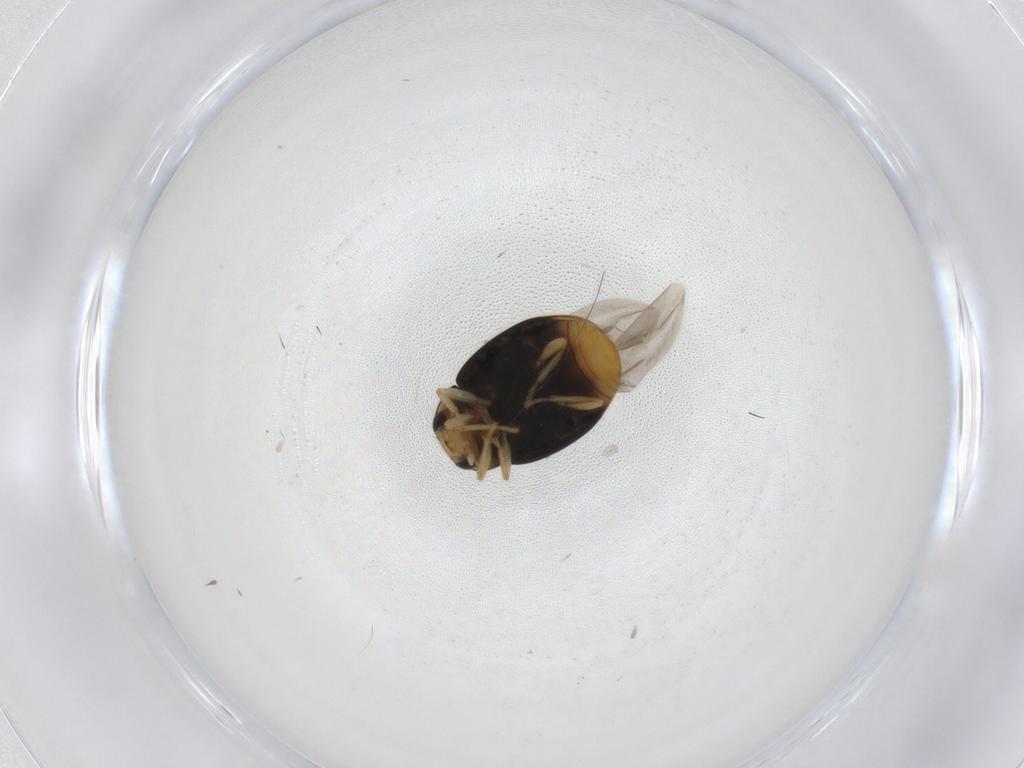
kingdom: Animalia
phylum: Arthropoda
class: Insecta
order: Coleoptera
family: Coccinellidae
